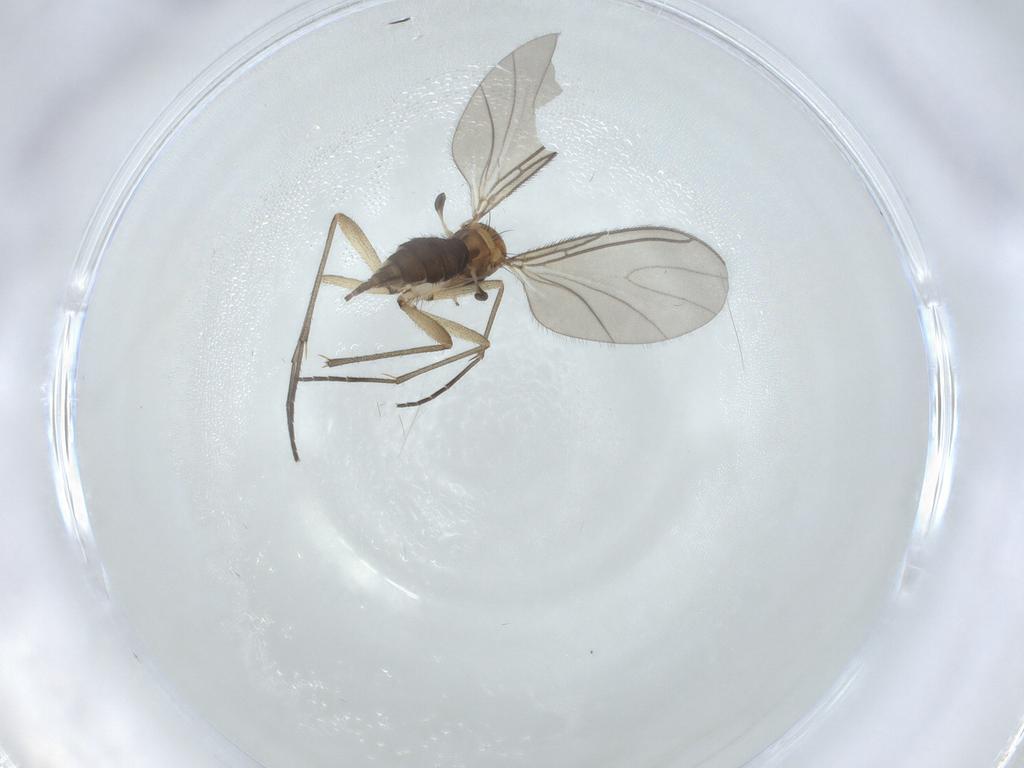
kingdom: Animalia
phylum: Arthropoda
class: Insecta
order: Diptera
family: Sciaridae
